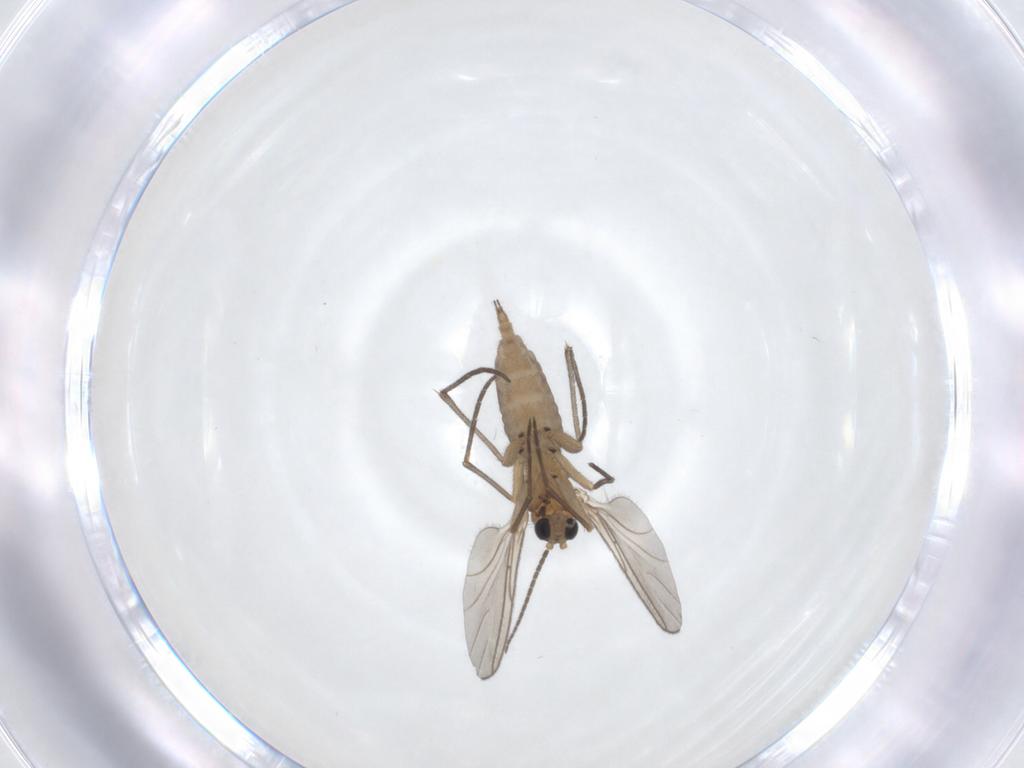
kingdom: Animalia
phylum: Arthropoda
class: Insecta
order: Diptera
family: Sciaridae
